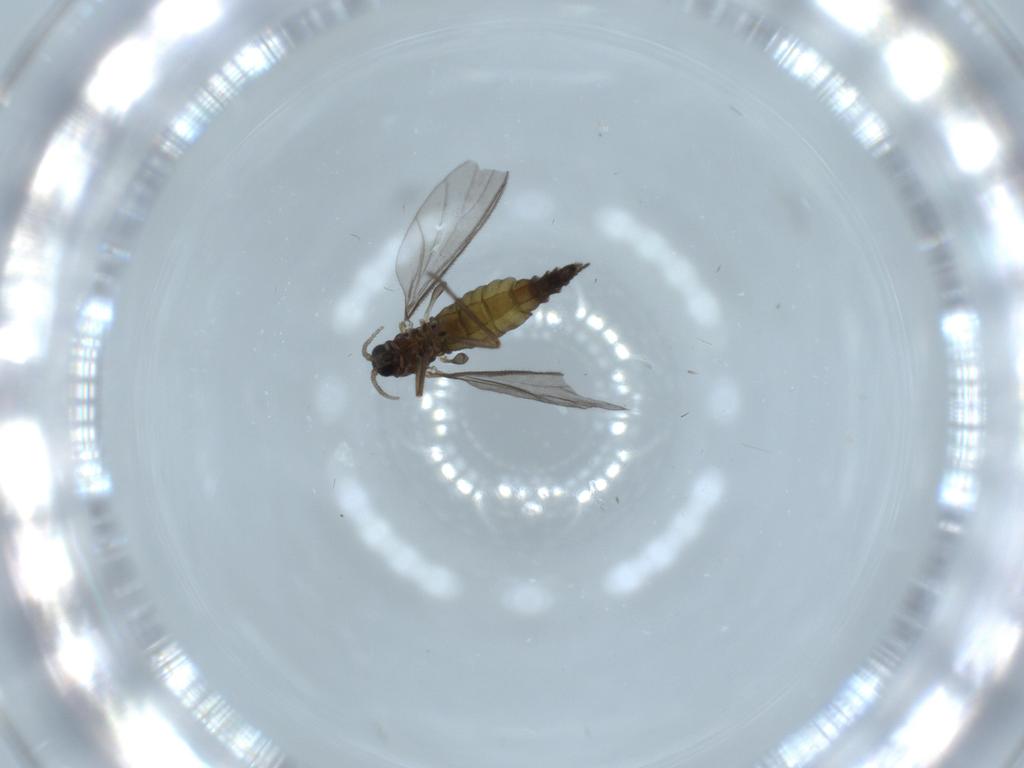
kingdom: Animalia
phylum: Arthropoda
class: Insecta
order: Diptera
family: Sciaridae
